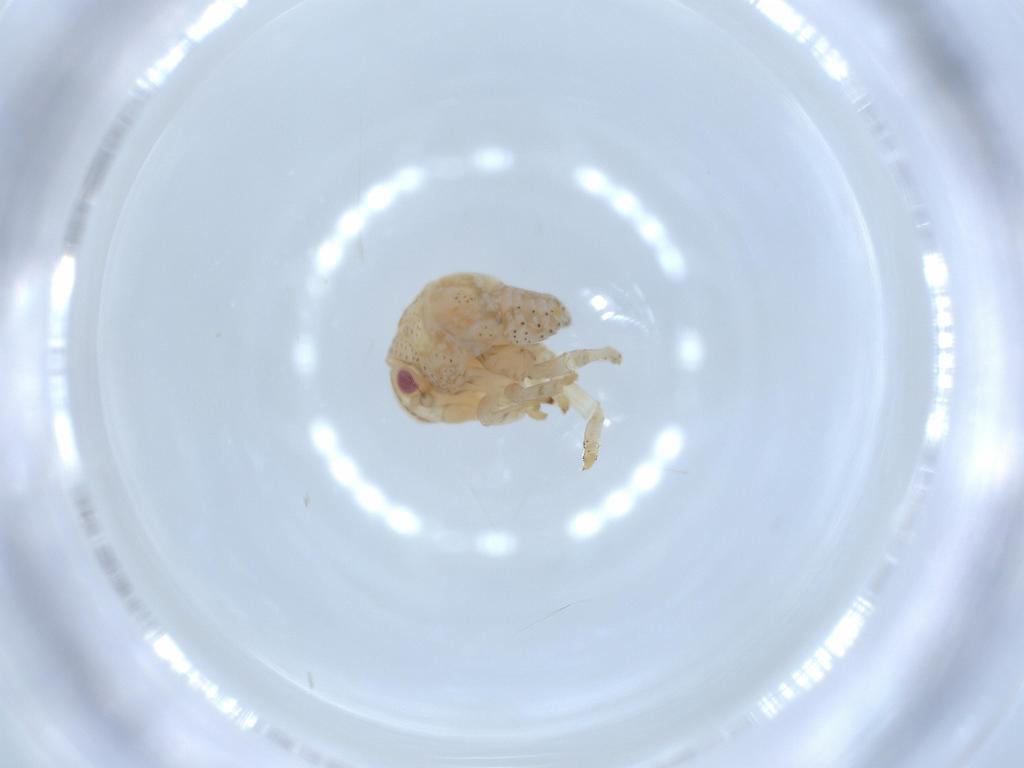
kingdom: Animalia
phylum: Arthropoda
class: Insecta
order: Hemiptera
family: Acanaloniidae
